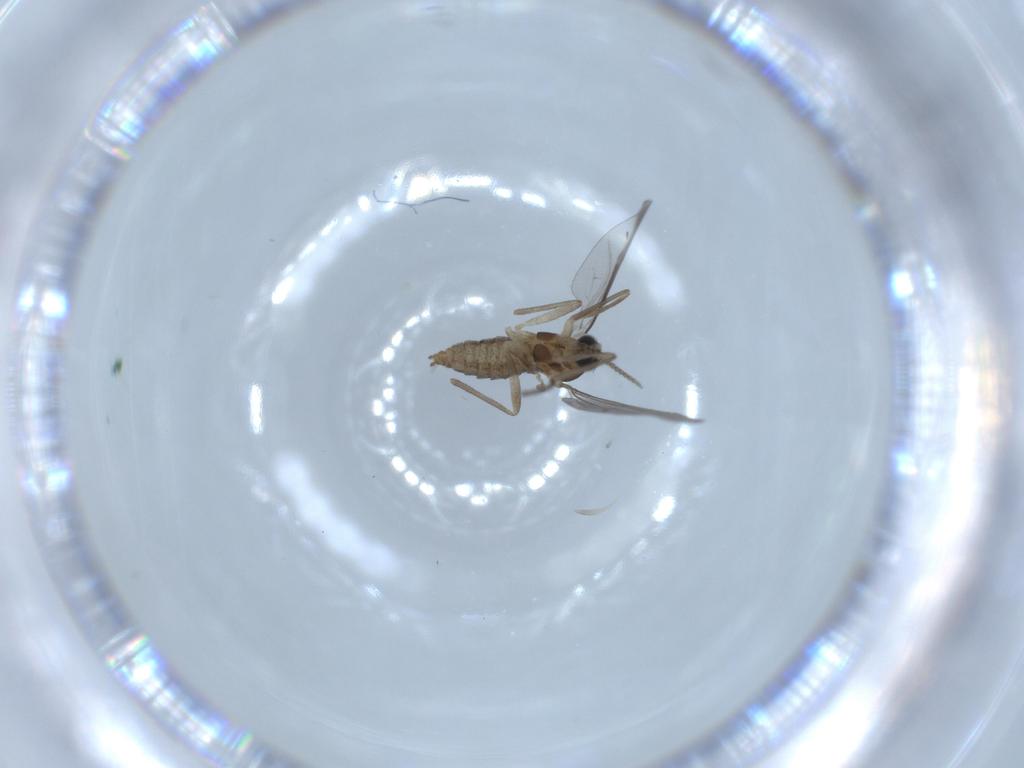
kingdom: Animalia
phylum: Arthropoda
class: Insecta
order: Diptera
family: Cecidomyiidae
